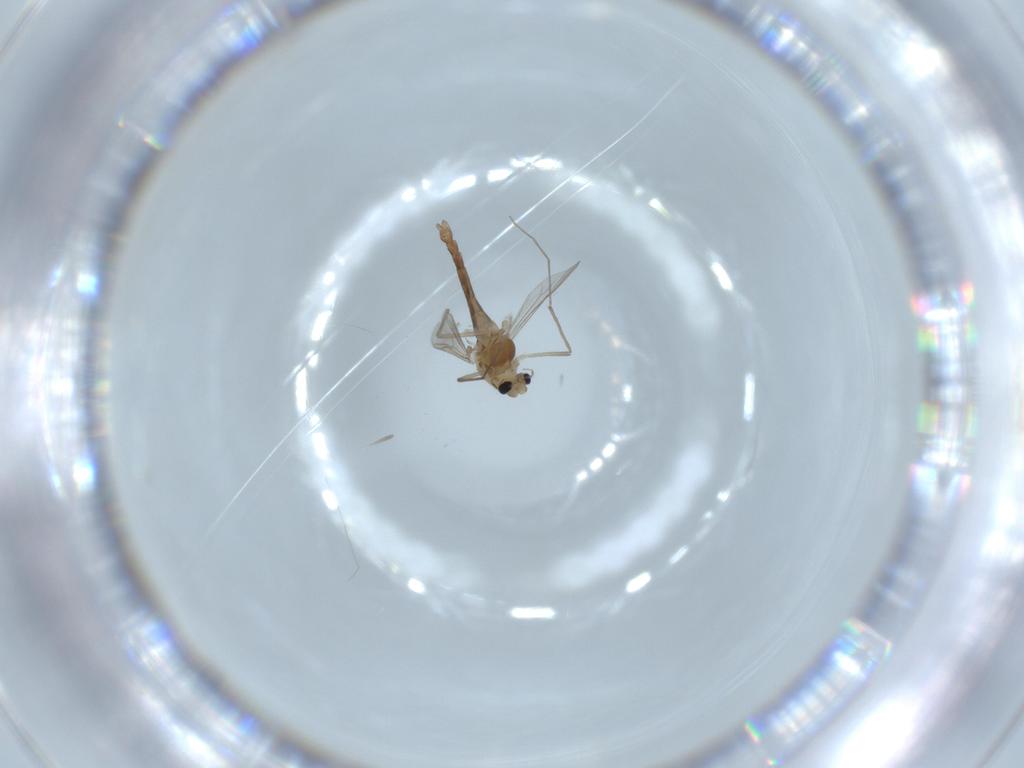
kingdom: Animalia
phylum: Arthropoda
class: Insecta
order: Diptera
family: Chironomidae
